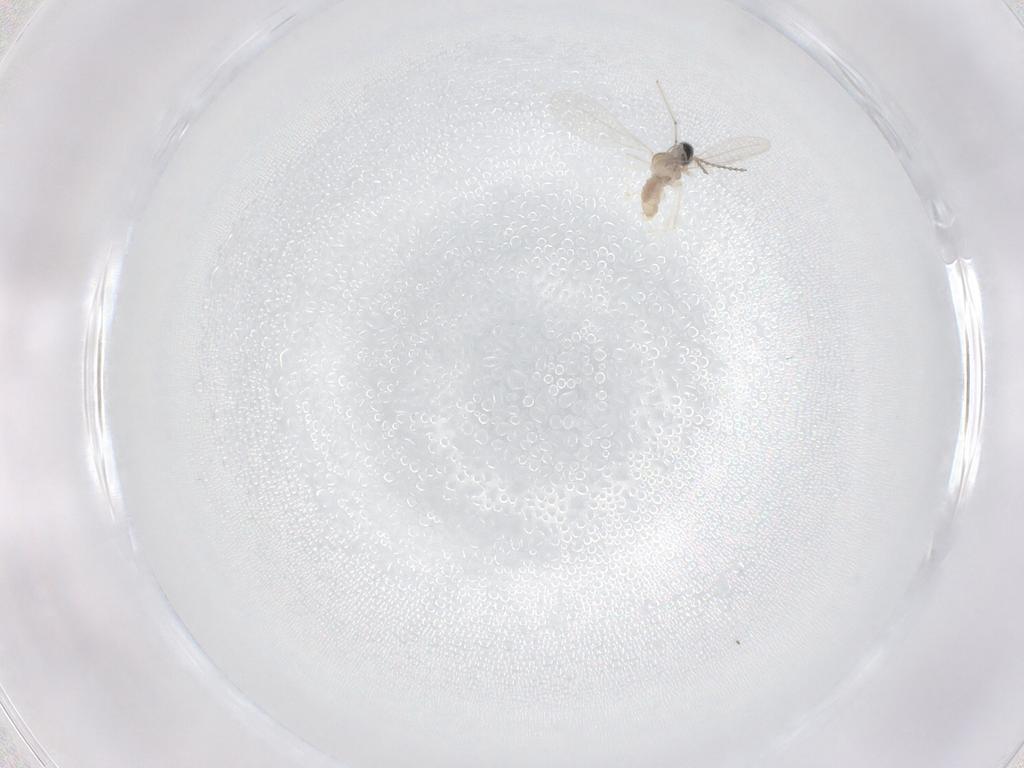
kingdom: Animalia
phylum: Arthropoda
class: Insecta
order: Diptera
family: Cecidomyiidae
